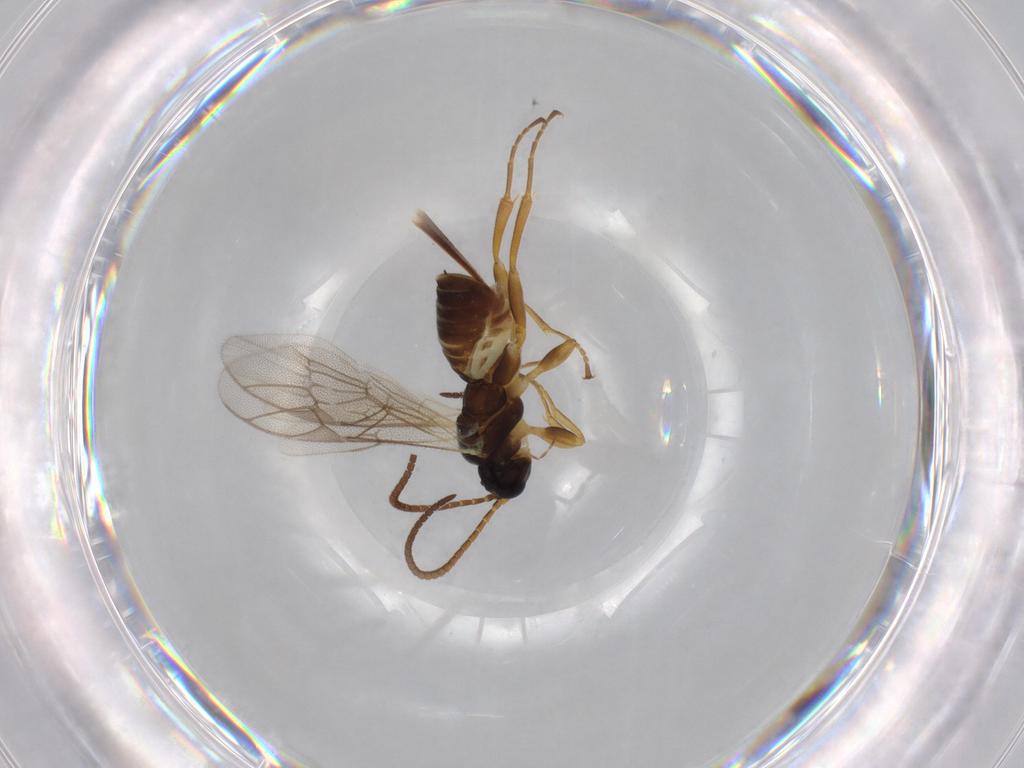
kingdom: Animalia
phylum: Arthropoda
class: Insecta
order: Hymenoptera
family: Ichneumonidae
